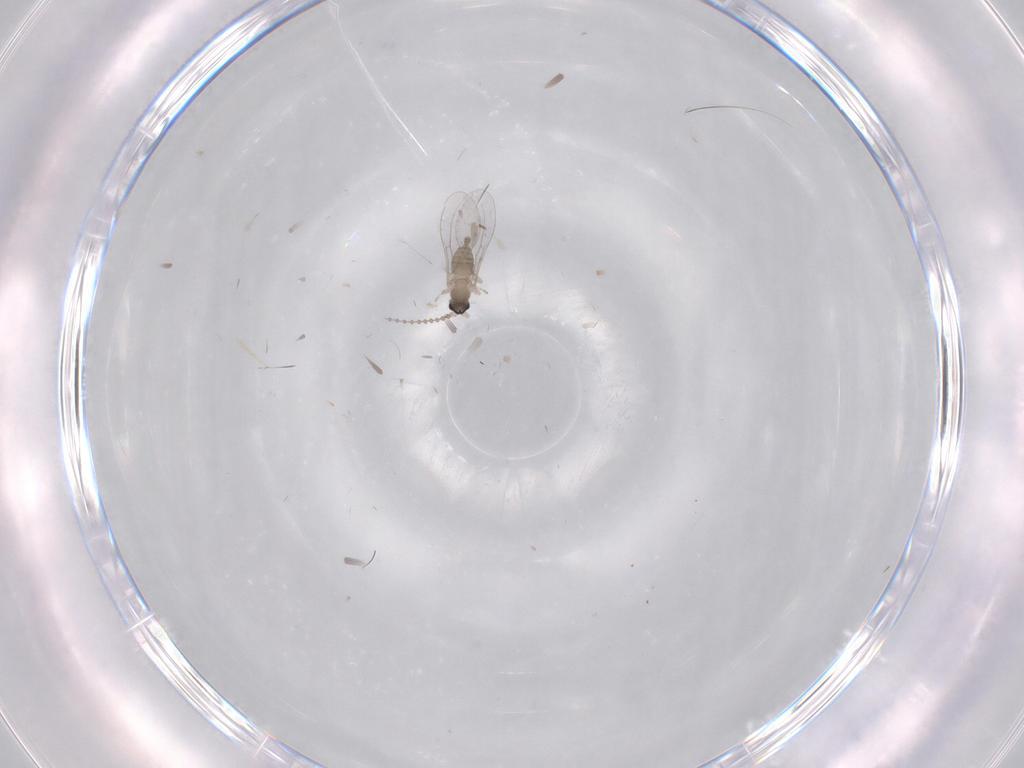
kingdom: Animalia
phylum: Arthropoda
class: Insecta
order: Diptera
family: Cecidomyiidae
